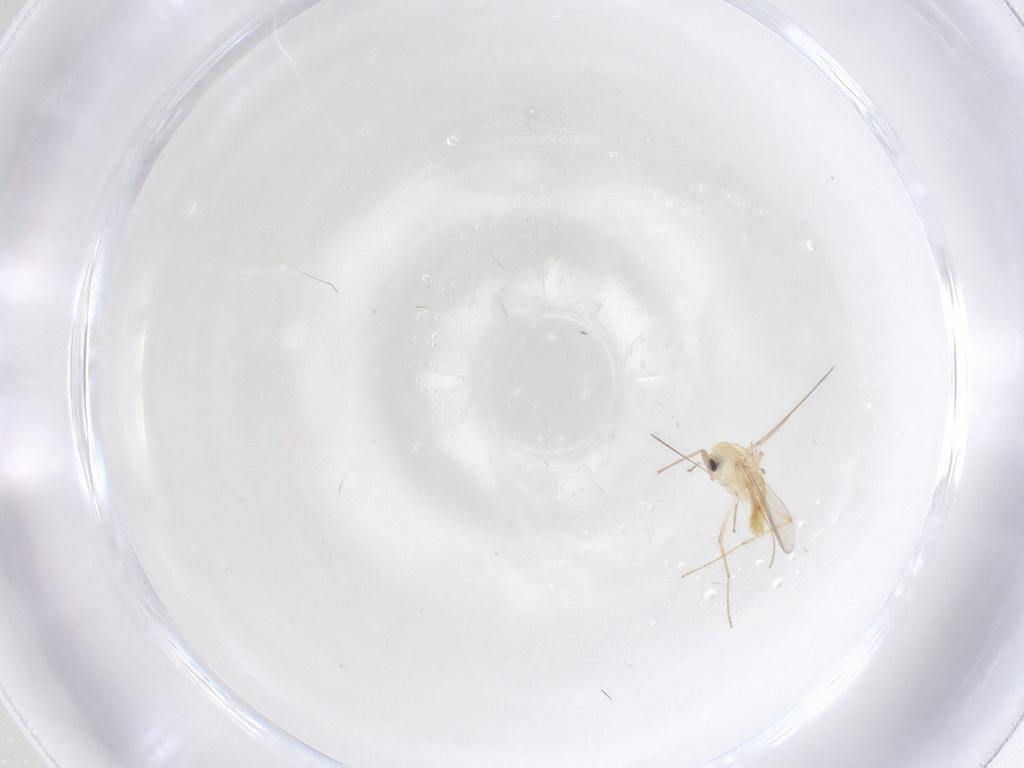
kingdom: Animalia
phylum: Arthropoda
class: Insecta
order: Diptera
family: Chironomidae
